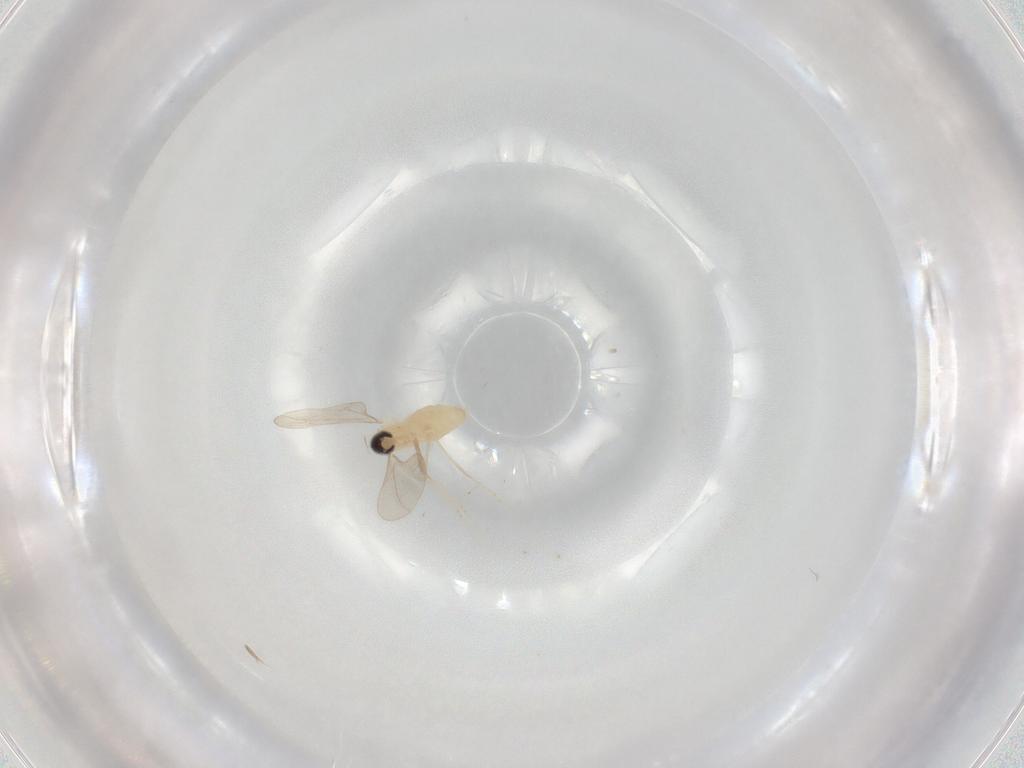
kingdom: Animalia
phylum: Arthropoda
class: Insecta
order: Diptera
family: Cecidomyiidae
